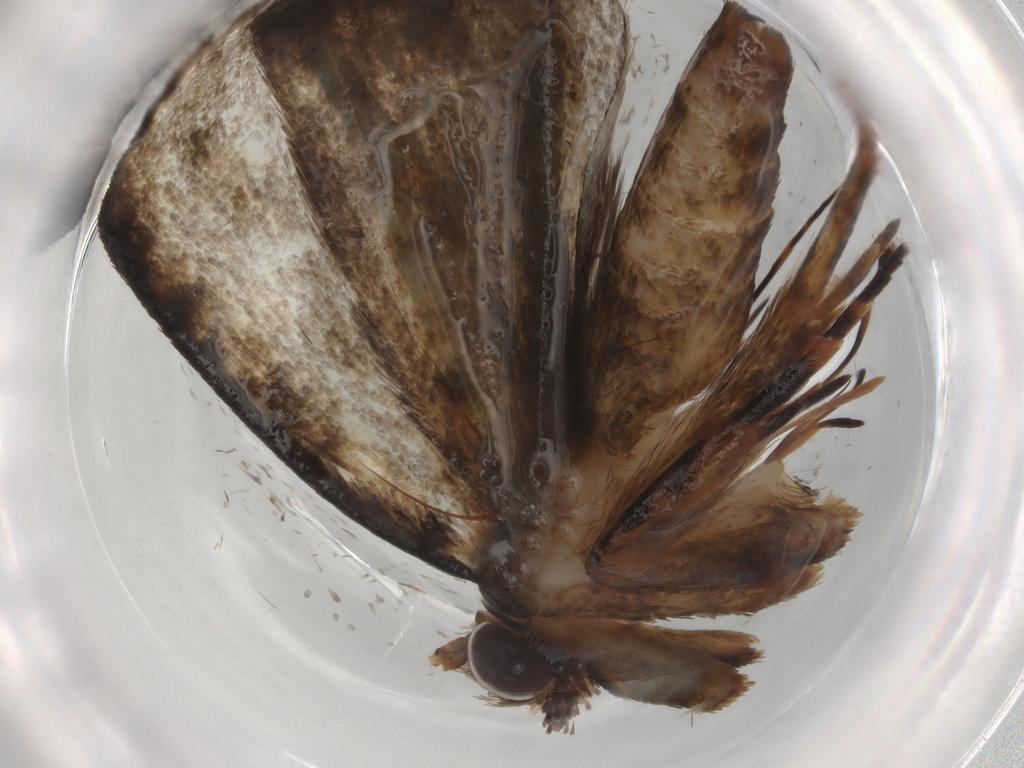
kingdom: Animalia
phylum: Arthropoda
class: Insecta
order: Lepidoptera
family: Tineidae
